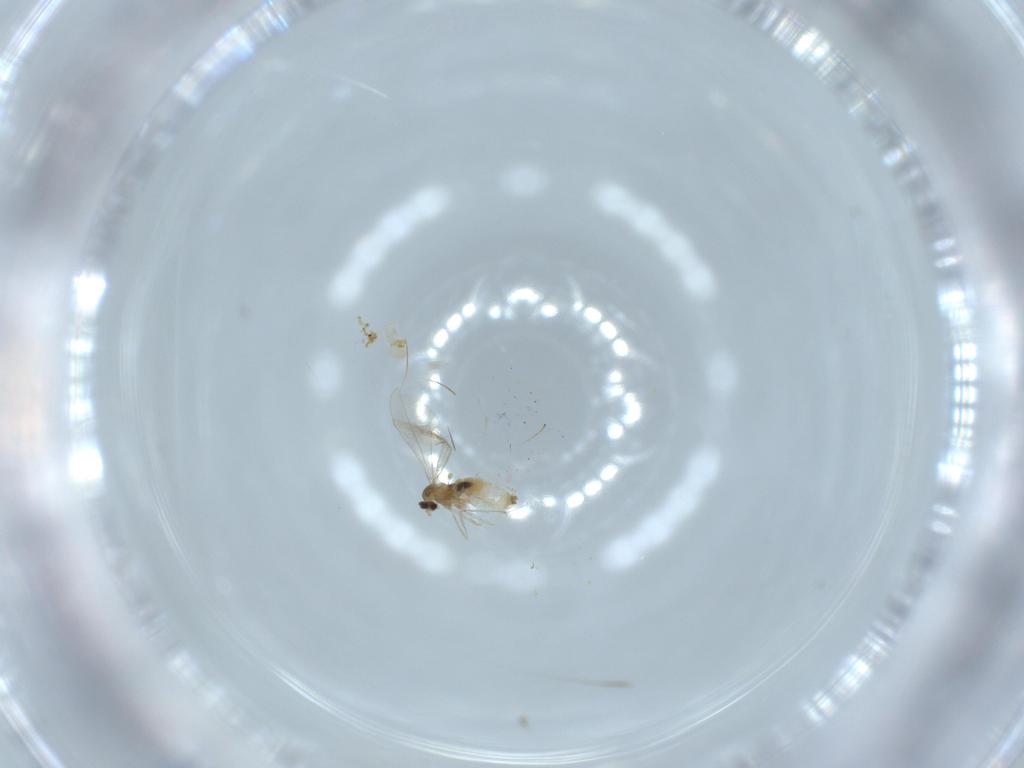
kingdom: Animalia
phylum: Arthropoda
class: Insecta
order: Diptera
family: Cecidomyiidae
